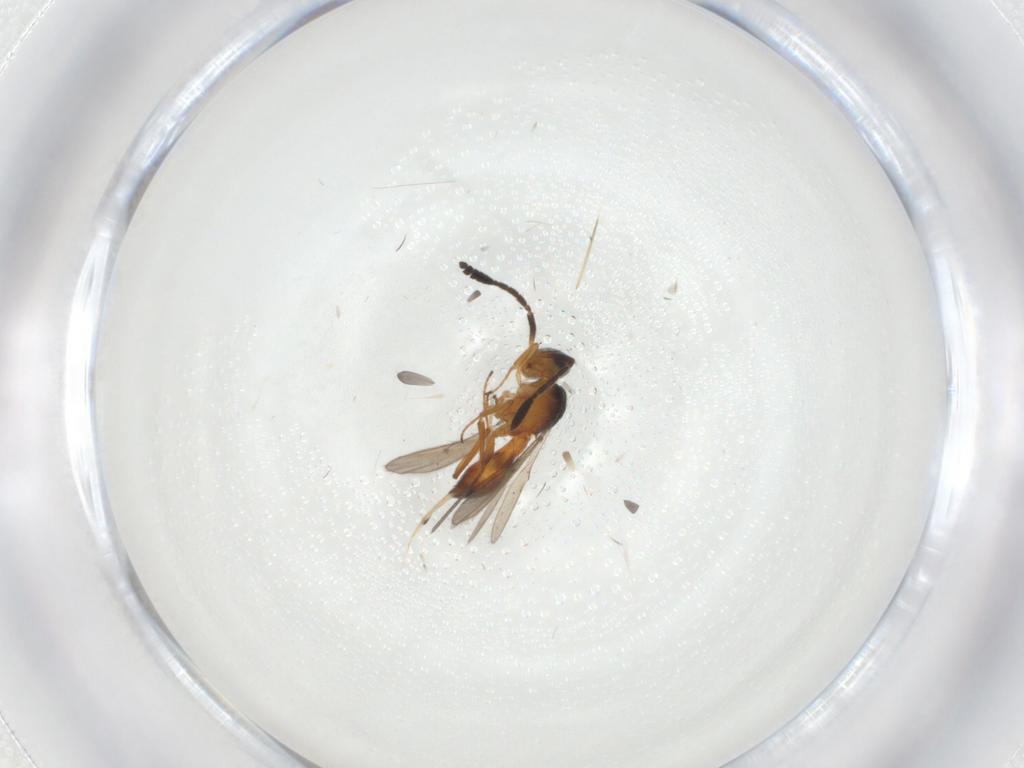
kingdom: Animalia
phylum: Arthropoda
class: Insecta
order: Hymenoptera
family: Scelionidae
